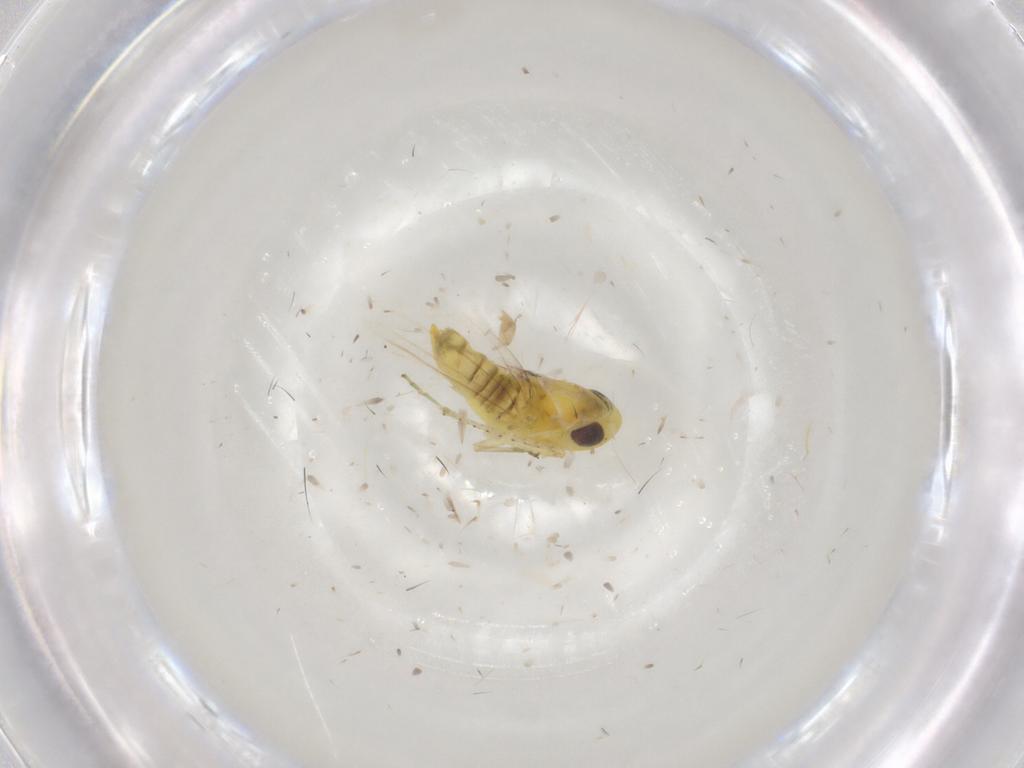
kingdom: Animalia
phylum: Arthropoda
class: Insecta
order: Hemiptera
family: Cicadellidae
